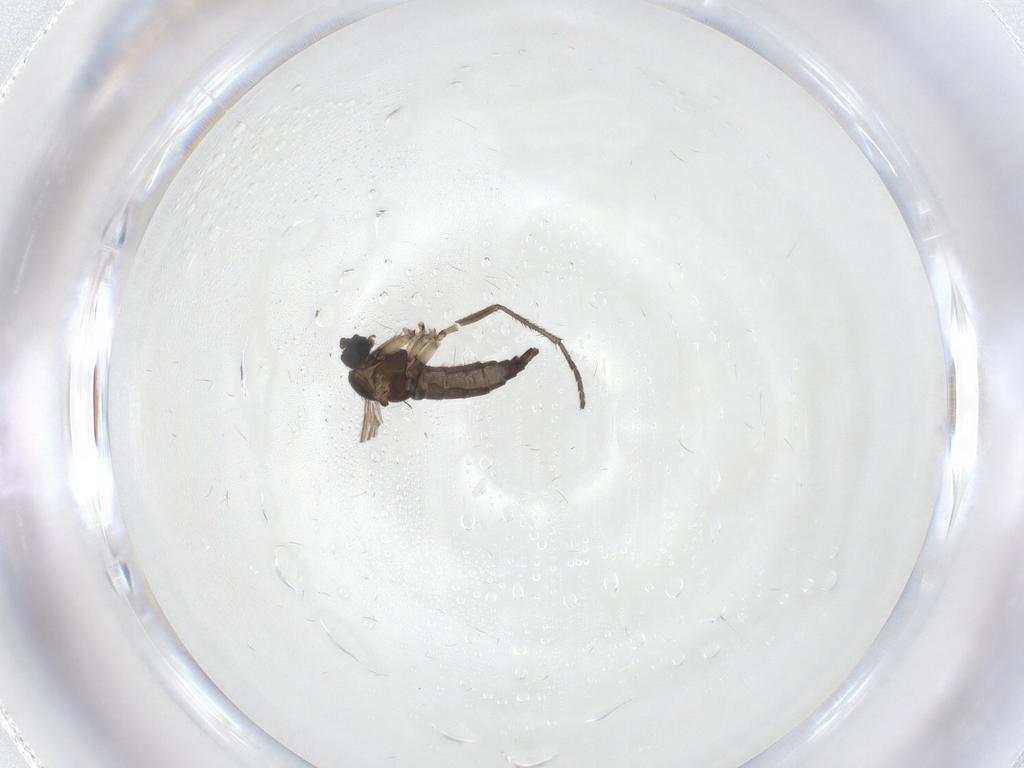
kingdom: Animalia
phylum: Arthropoda
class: Insecta
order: Diptera
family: Sciaridae
